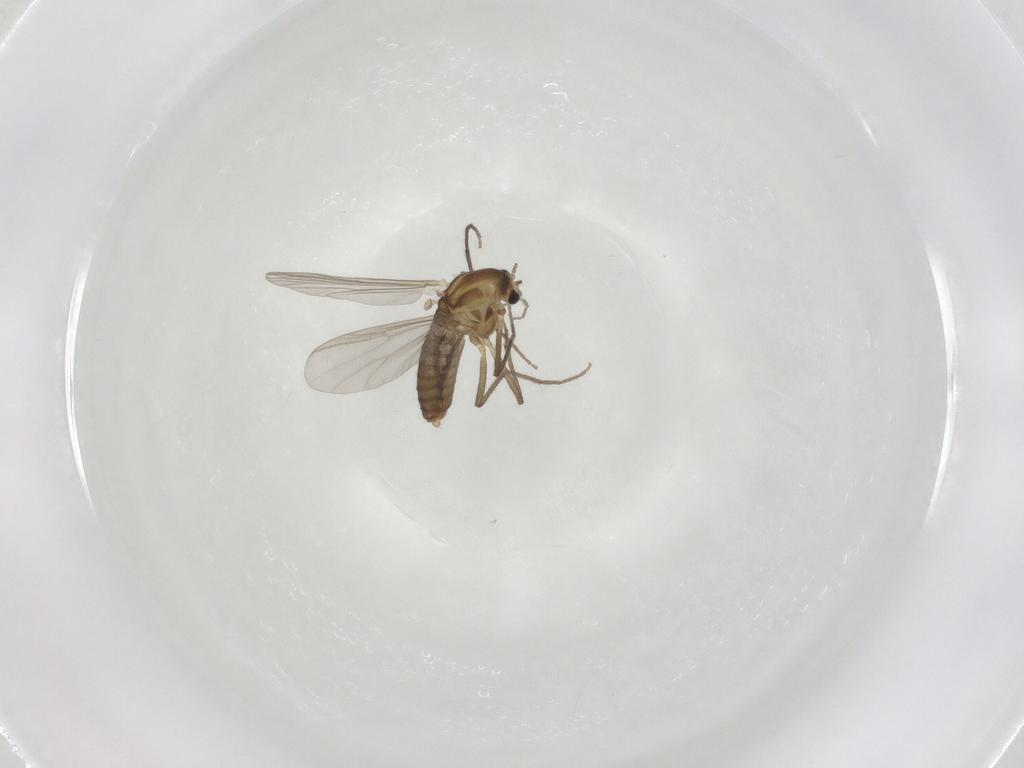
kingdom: Animalia
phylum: Arthropoda
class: Insecta
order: Diptera
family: Chironomidae
